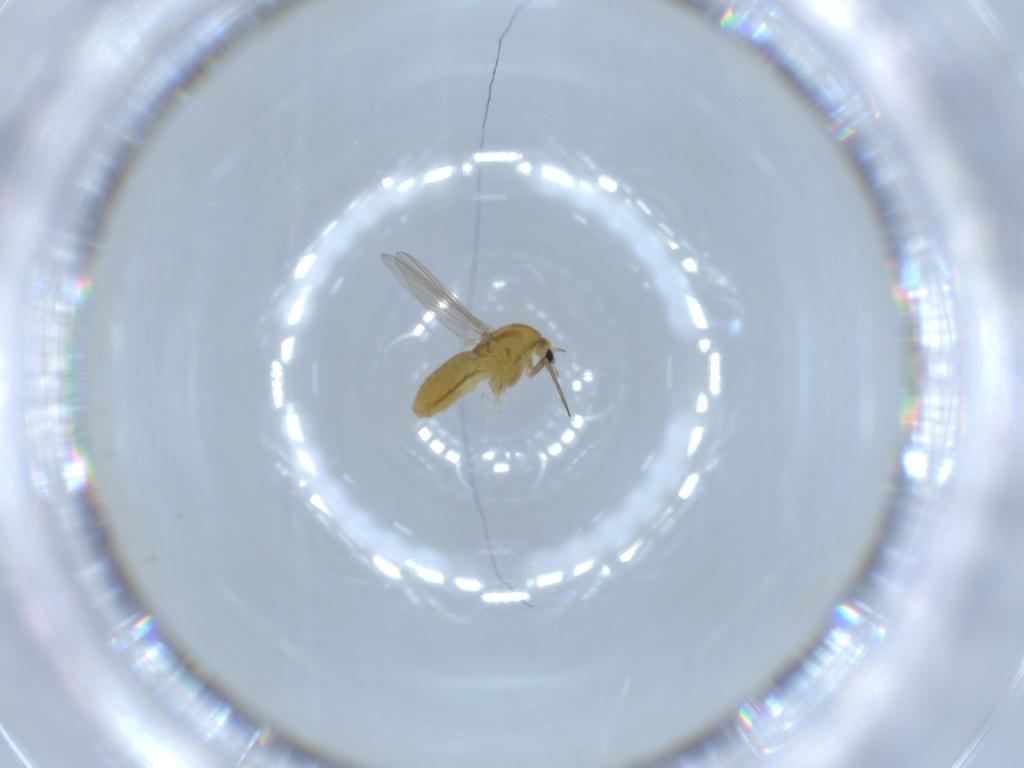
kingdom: Animalia
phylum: Arthropoda
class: Insecta
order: Diptera
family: Chironomidae
